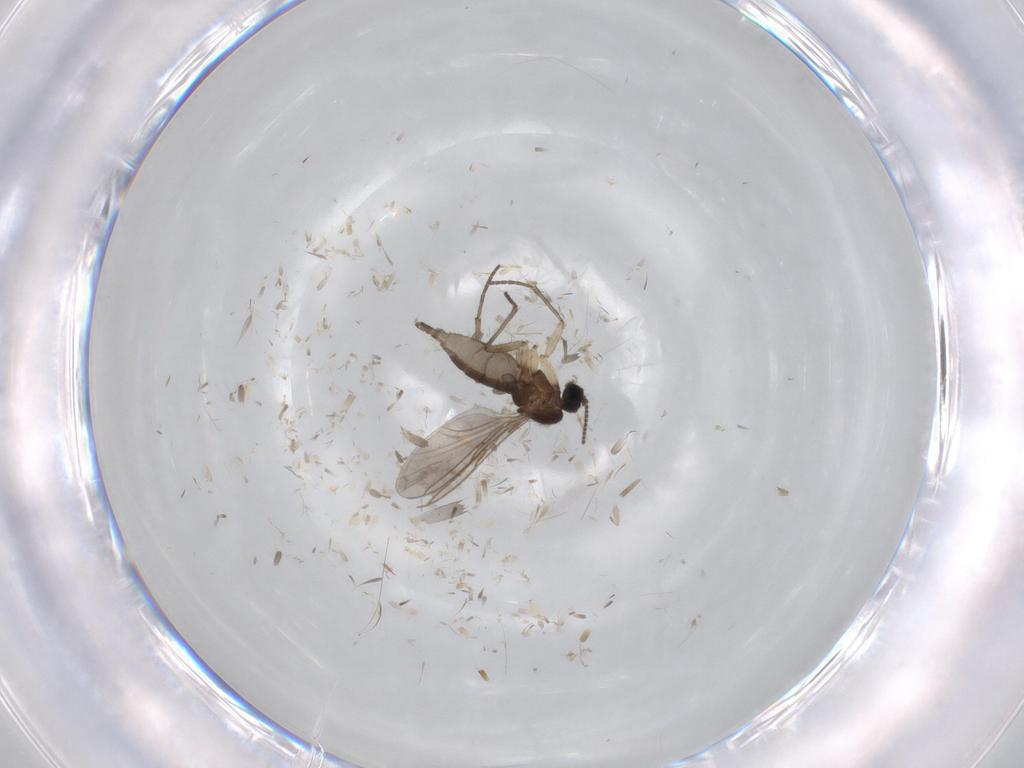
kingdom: Animalia
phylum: Arthropoda
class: Insecta
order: Diptera
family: Sciaridae
